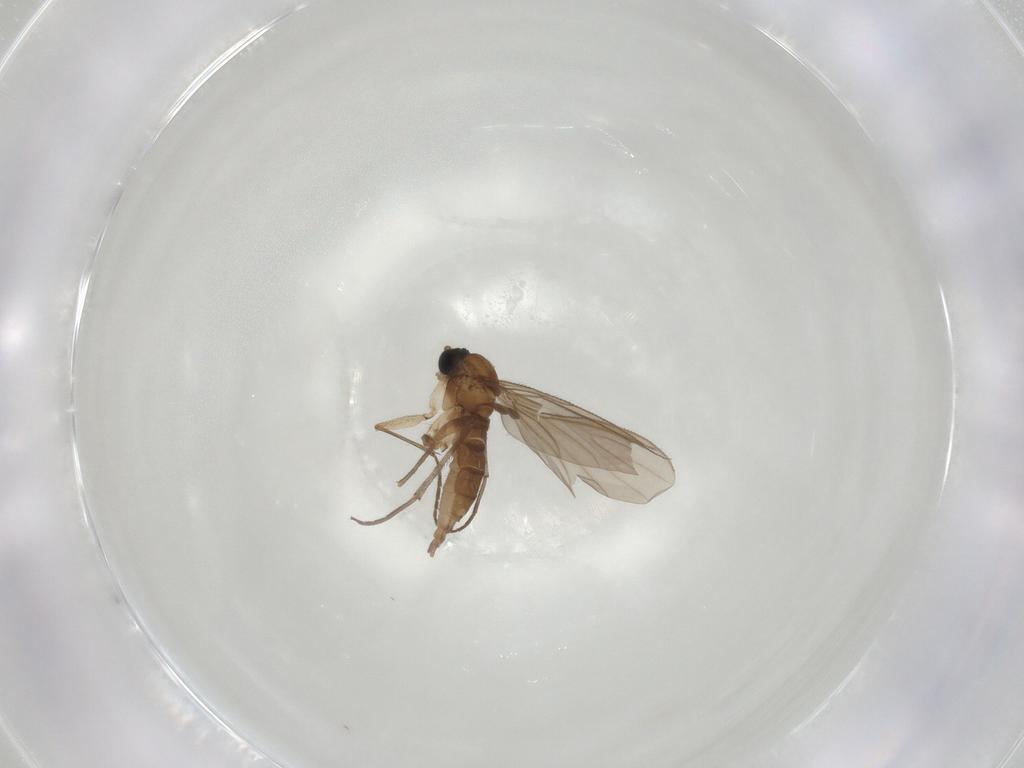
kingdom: Animalia
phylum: Arthropoda
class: Insecta
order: Diptera
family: Sciaridae
